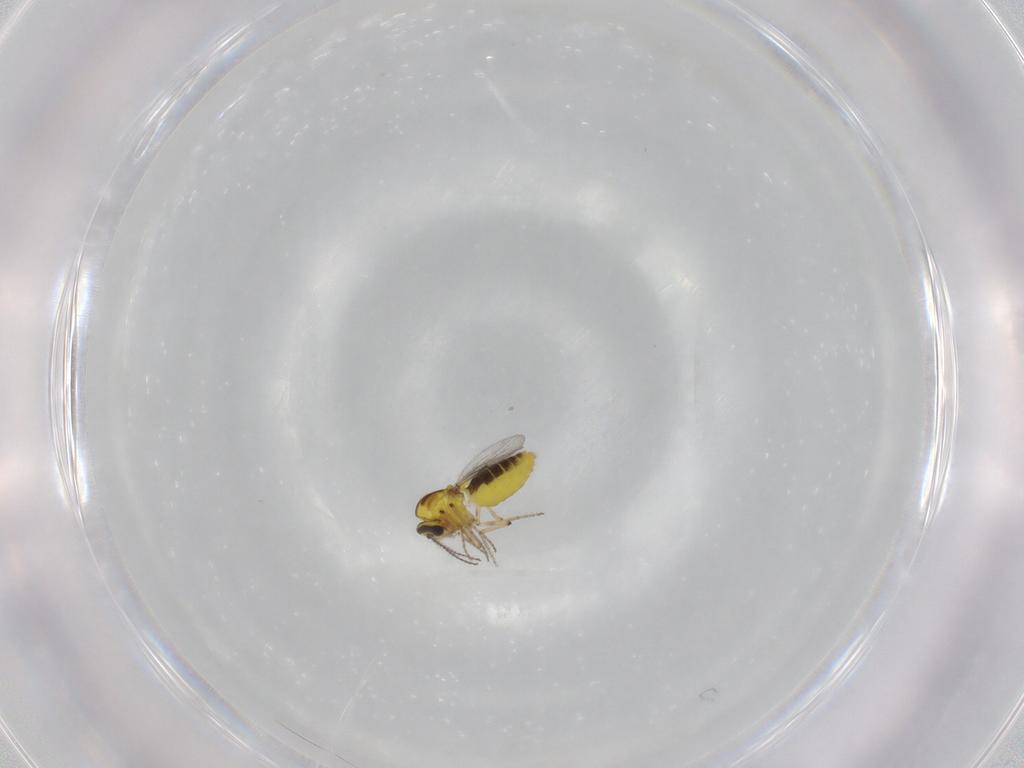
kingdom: Animalia
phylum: Arthropoda
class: Insecta
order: Diptera
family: Ceratopogonidae
